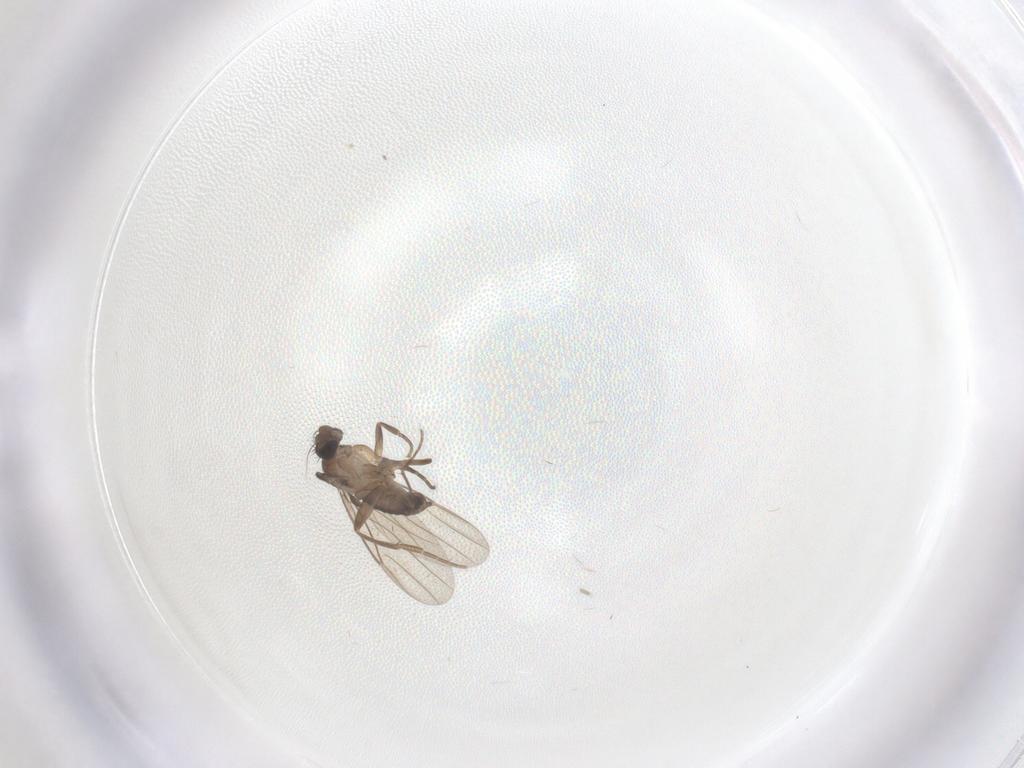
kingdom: Animalia
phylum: Arthropoda
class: Insecta
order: Diptera
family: Phoridae
